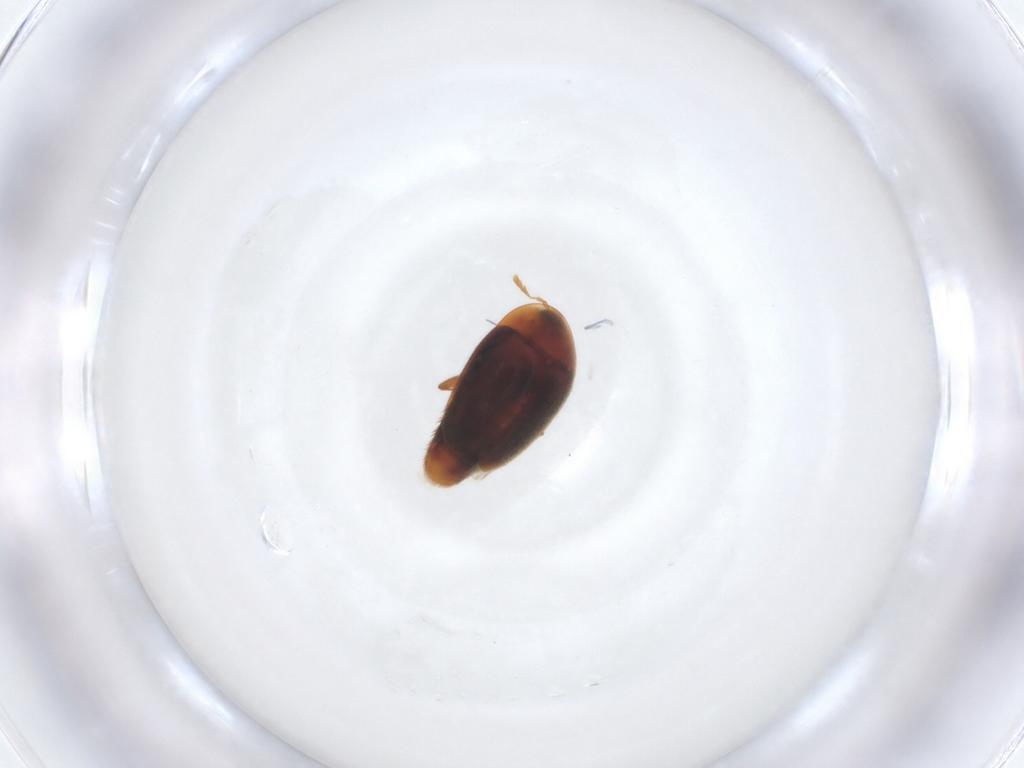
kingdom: Animalia
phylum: Arthropoda
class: Insecta
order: Coleoptera
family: Corylophidae
